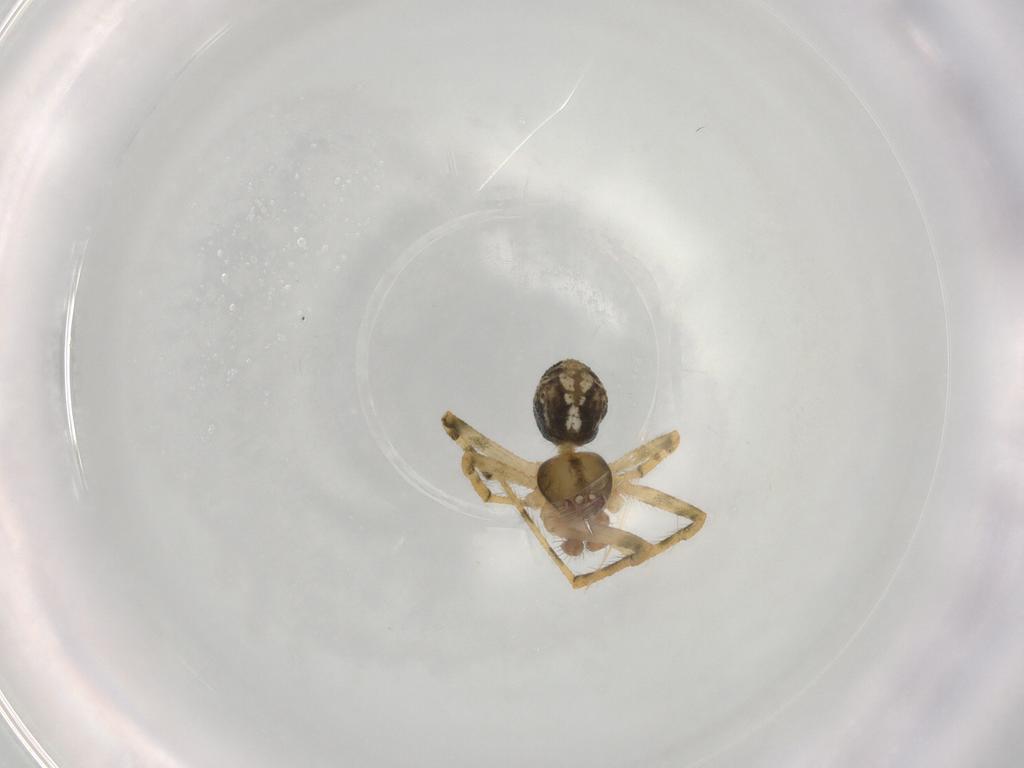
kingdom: Animalia
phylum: Arthropoda
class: Arachnida
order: Araneae
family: Theridiidae
